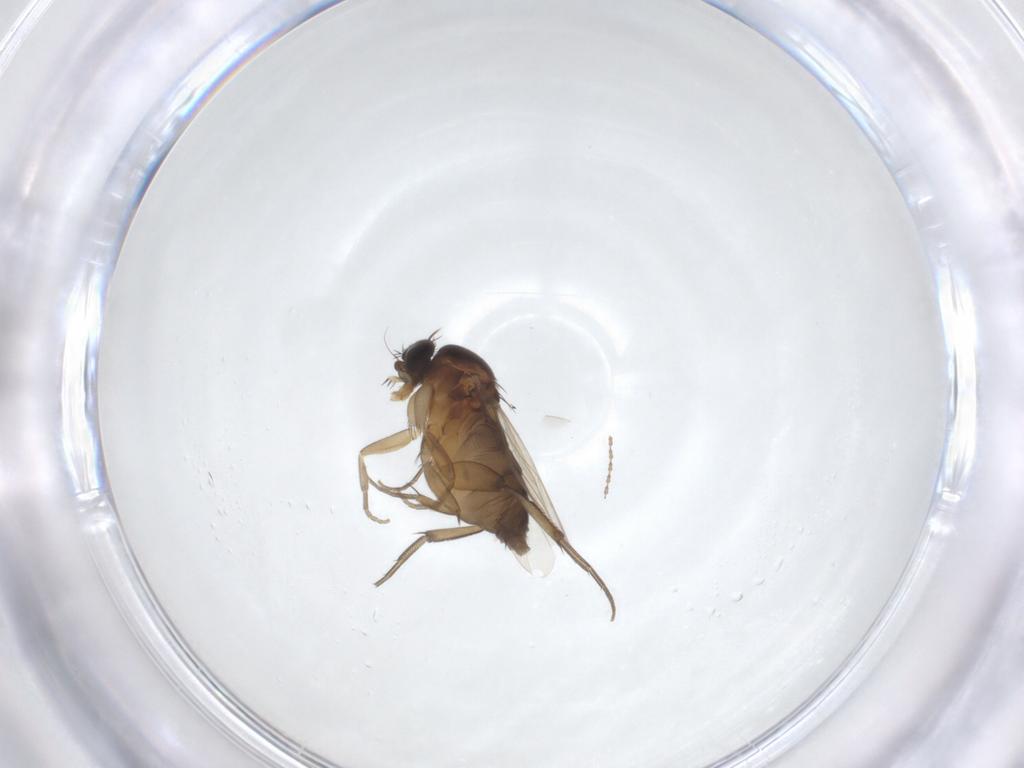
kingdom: Animalia
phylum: Arthropoda
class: Insecta
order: Diptera
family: Phoridae
